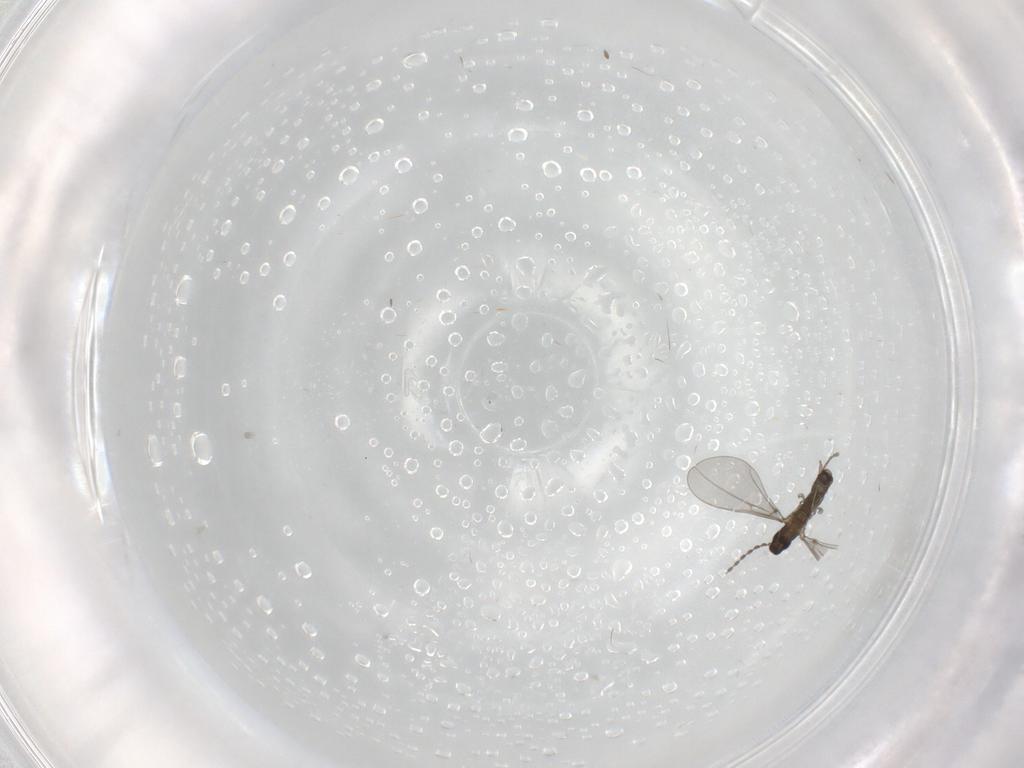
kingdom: Animalia
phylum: Arthropoda
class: Insecta
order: Diptera
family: Cecidomyiidae
